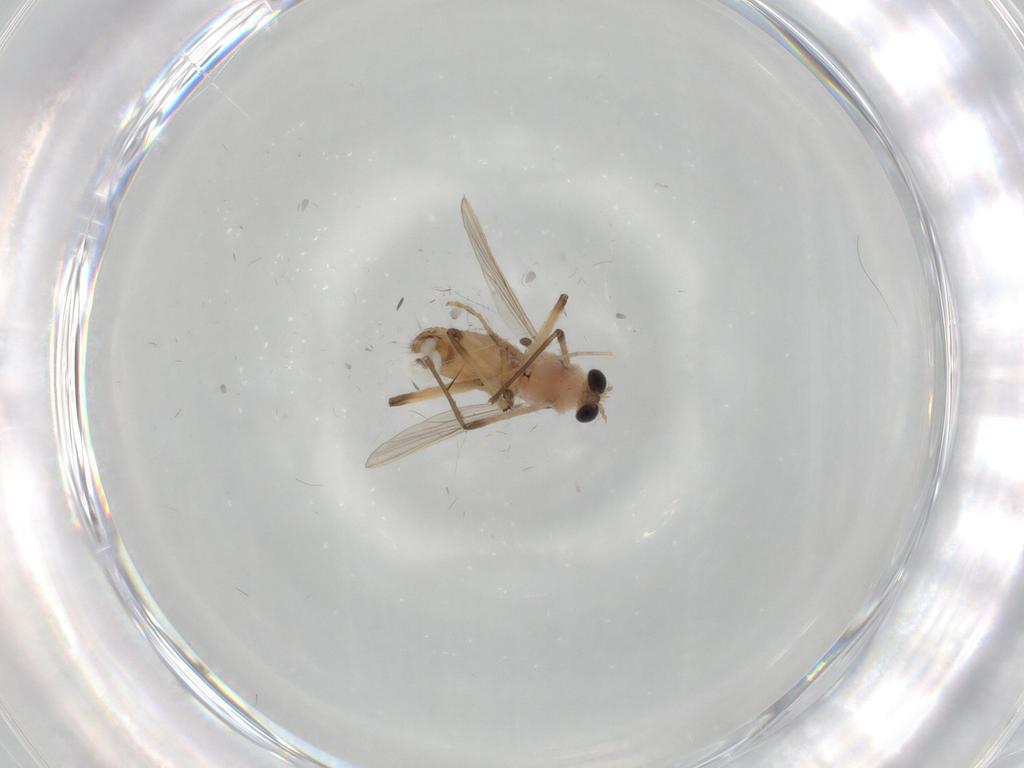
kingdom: Animalia
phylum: Arthropoda
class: Insecta
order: Diptera
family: Chironomidae
